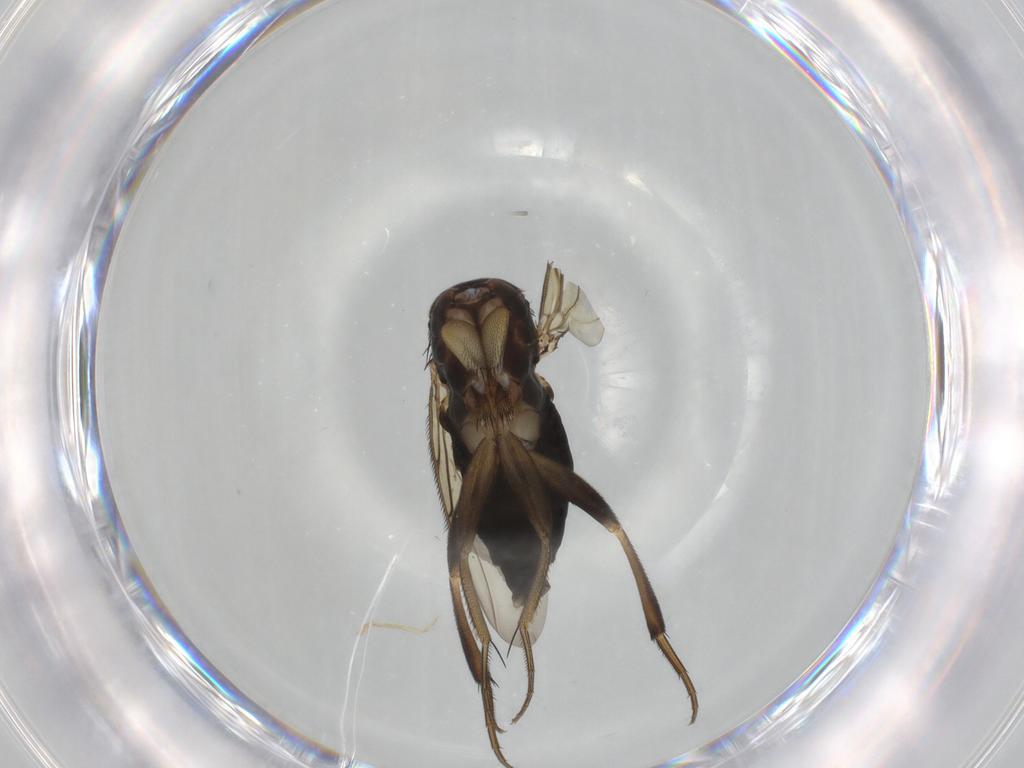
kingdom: Animalia
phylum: Arthropoda
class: Insecta
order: Diptera
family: Phoridae
